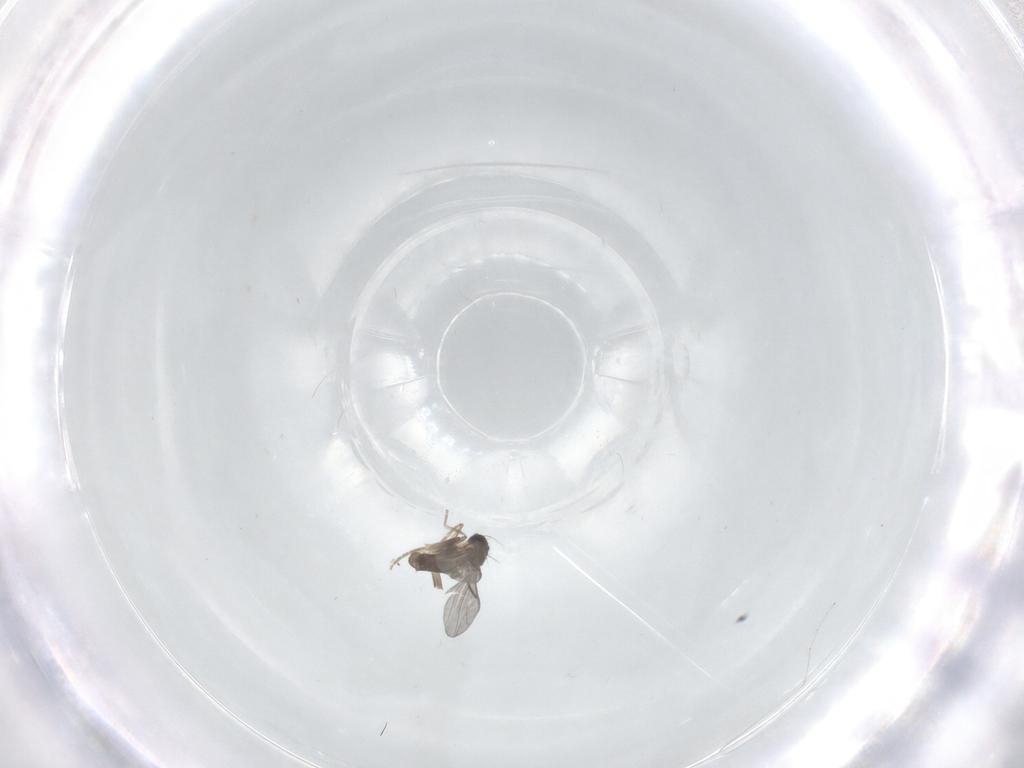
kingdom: Animalia
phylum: Arthropoda
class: Insecta
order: Diptera
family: Cecidomyiidae
